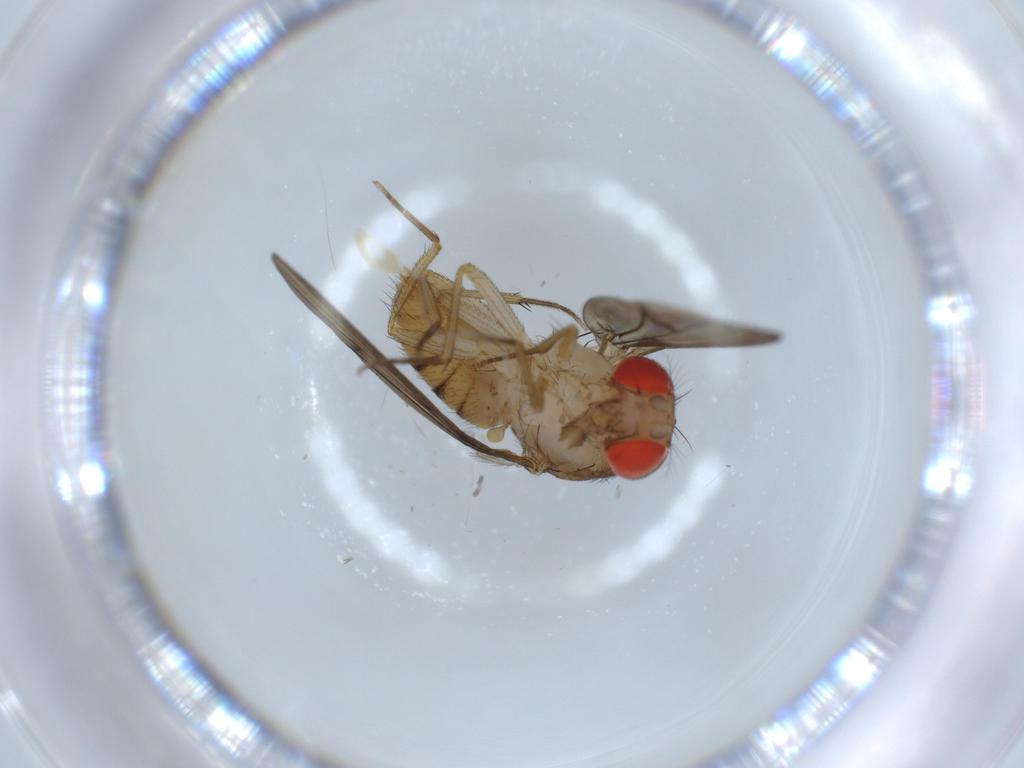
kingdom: Animalia
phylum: Arthropoda
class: Insecta
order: Diptera
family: Drosophilidae
